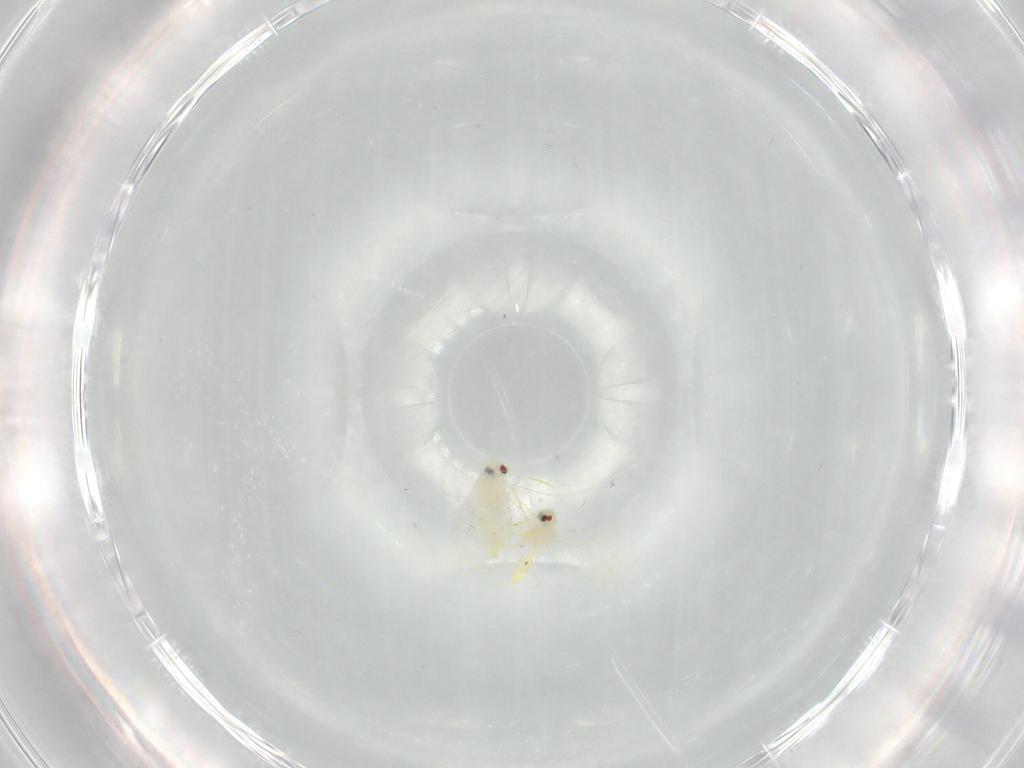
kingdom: Animalia
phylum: Arthropoda
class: Insecta
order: Hemiptera
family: Aleyrodidae
